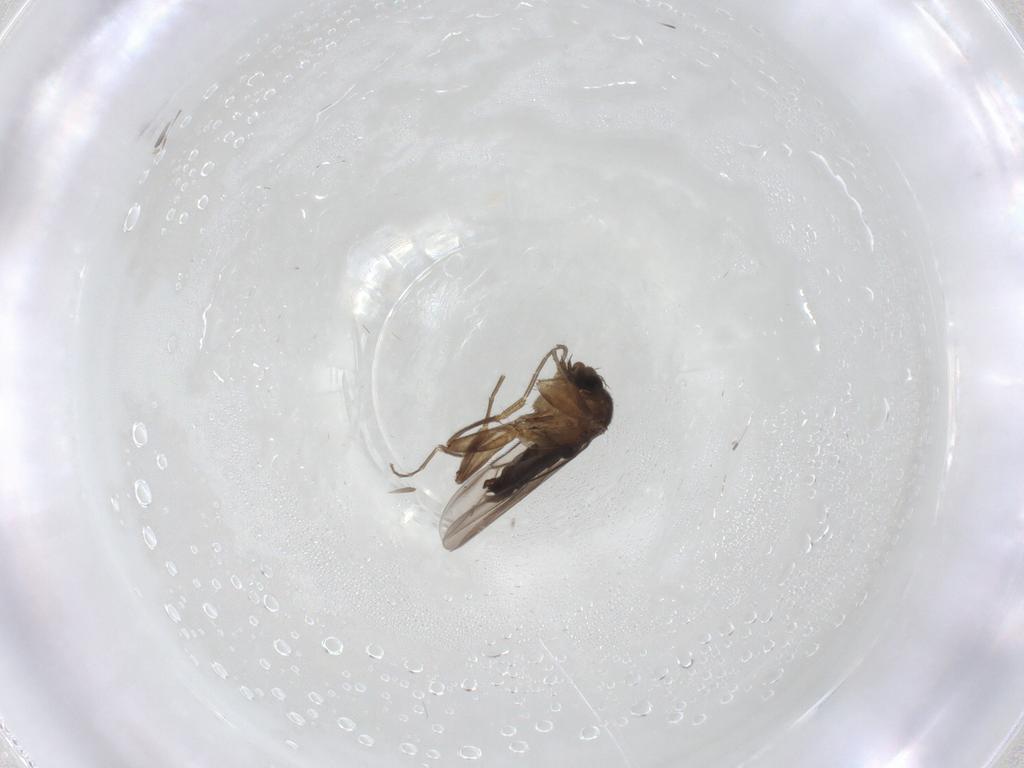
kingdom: Animalia
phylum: Arthropoda
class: Insecta
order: Diptera
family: Phoridae
